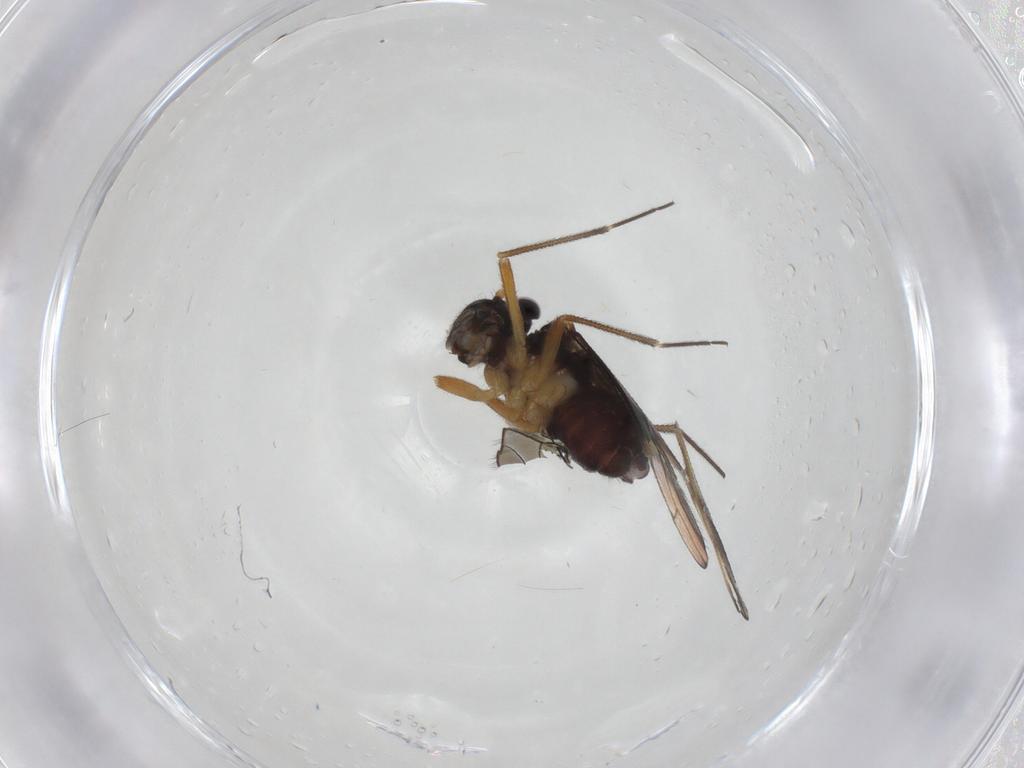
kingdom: Animalia
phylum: Arthropoda
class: Insecta
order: Diptera
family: Phoridae
